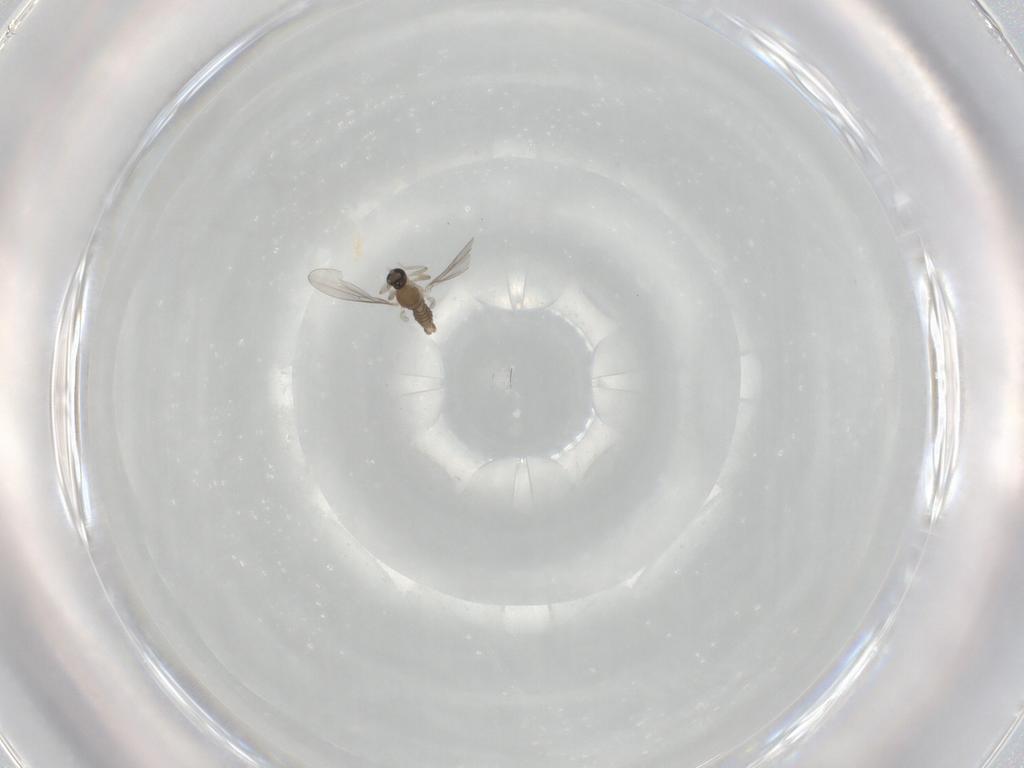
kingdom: Animalia
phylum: Arthropoda
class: Insecta
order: Diptera
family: Cecidomyiidae
